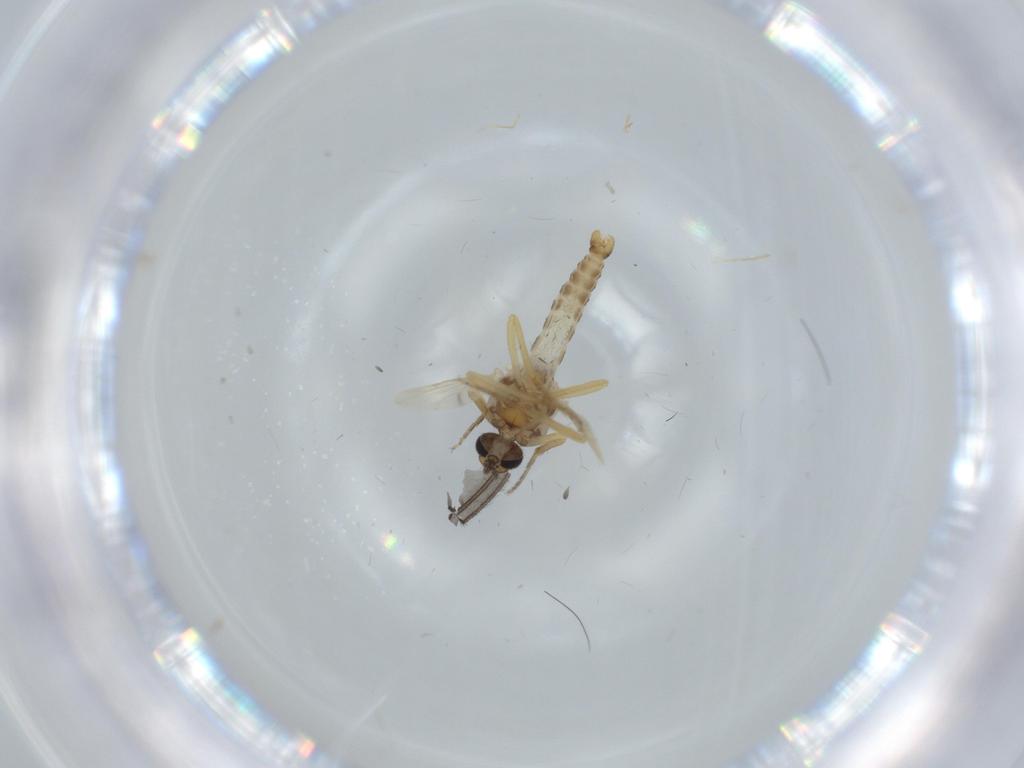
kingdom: Animalia
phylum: Arthropoda
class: Insecta
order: Diptera
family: Ceratopogonidae
